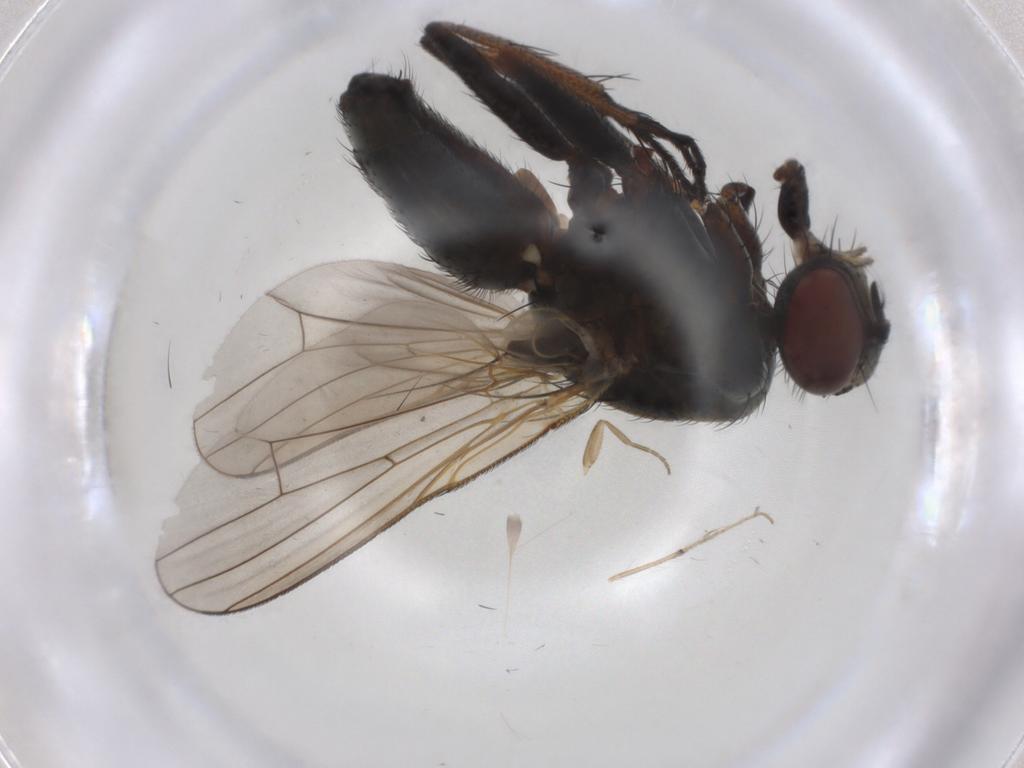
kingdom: Animalia
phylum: Arthropoda
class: Insecta
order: Diptera
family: Chloropidae
